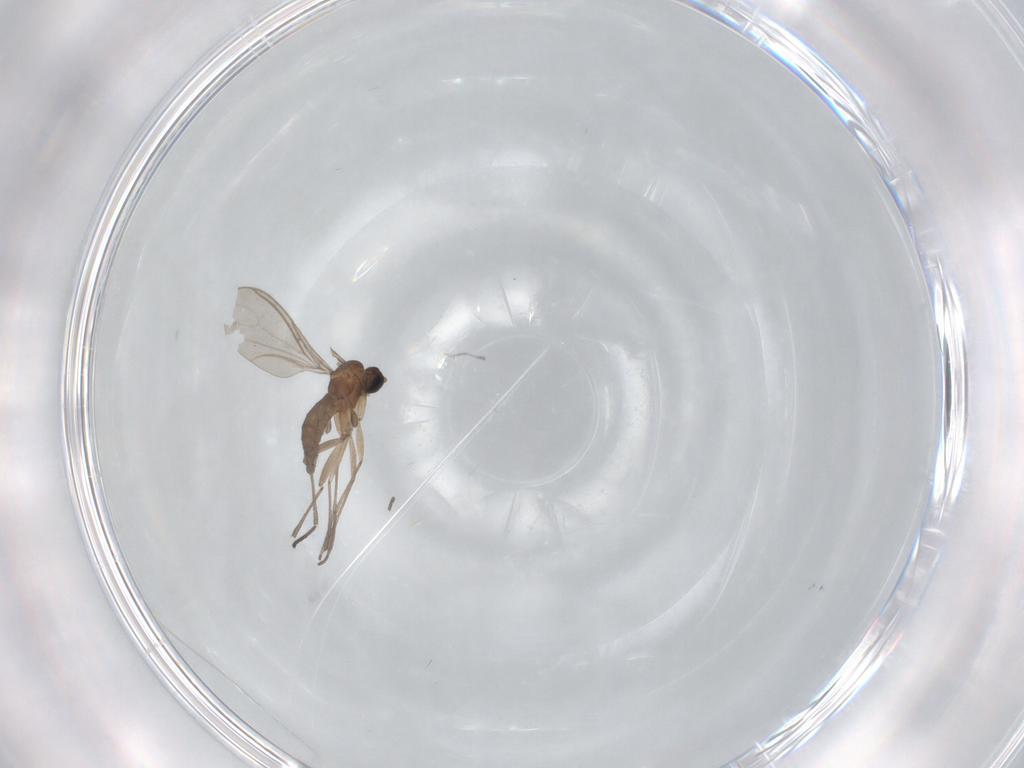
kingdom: Animalia
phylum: Arthropoda
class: Insecta
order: Diptera
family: Sciaridae
